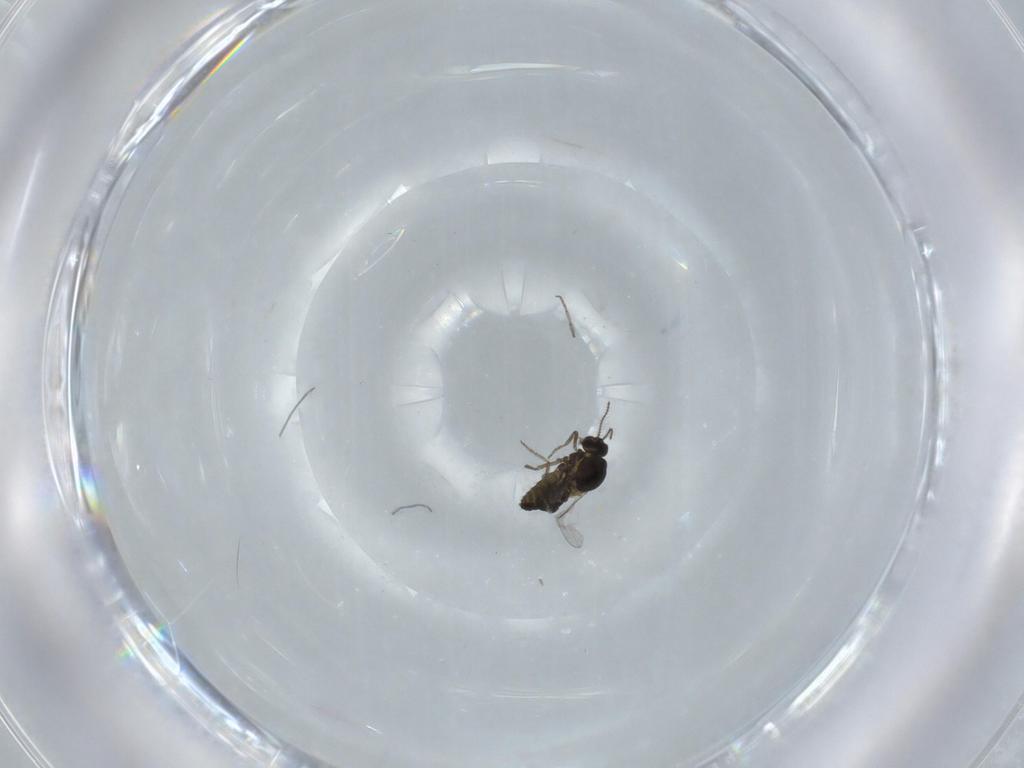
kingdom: Animalia
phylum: Arthropoda
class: Insecta
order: Diptera
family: Ceratopogonidae
